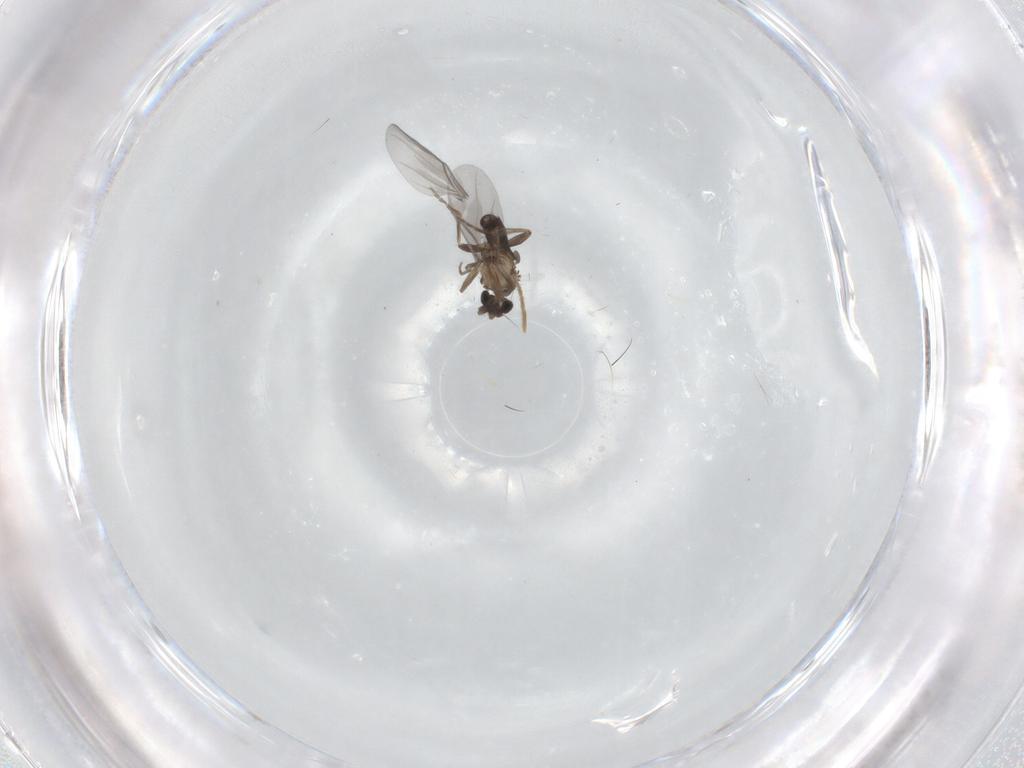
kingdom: Animalia
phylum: Arthropoda
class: Insecta
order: Diptera
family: Chironomidae
